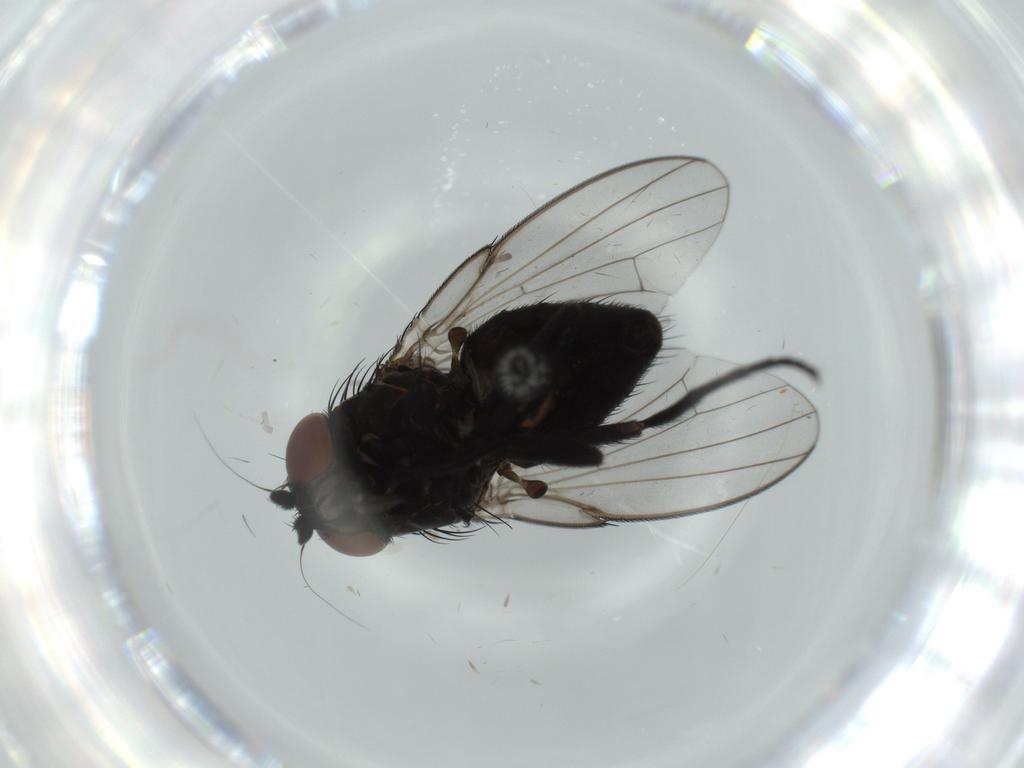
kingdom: Animalia
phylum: Arthropoda
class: Insecta
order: Diptera
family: Milichiidae
